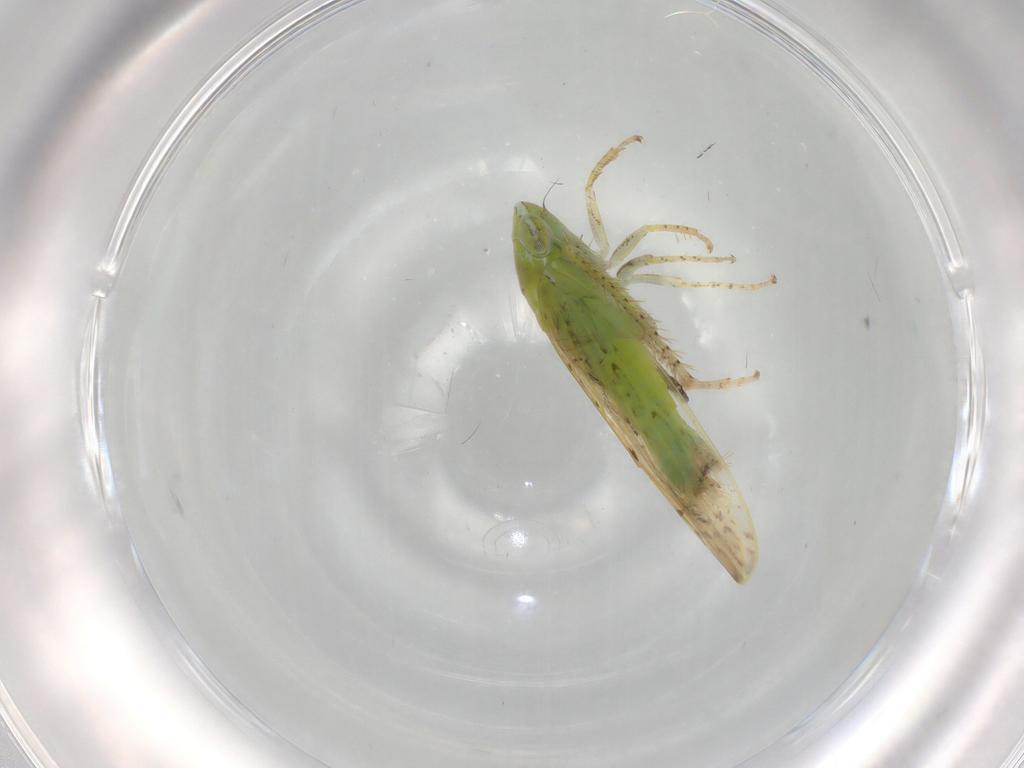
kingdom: Animalia
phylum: Arthropoda
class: Insecta
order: Hemiptera
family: Cicadellidae
